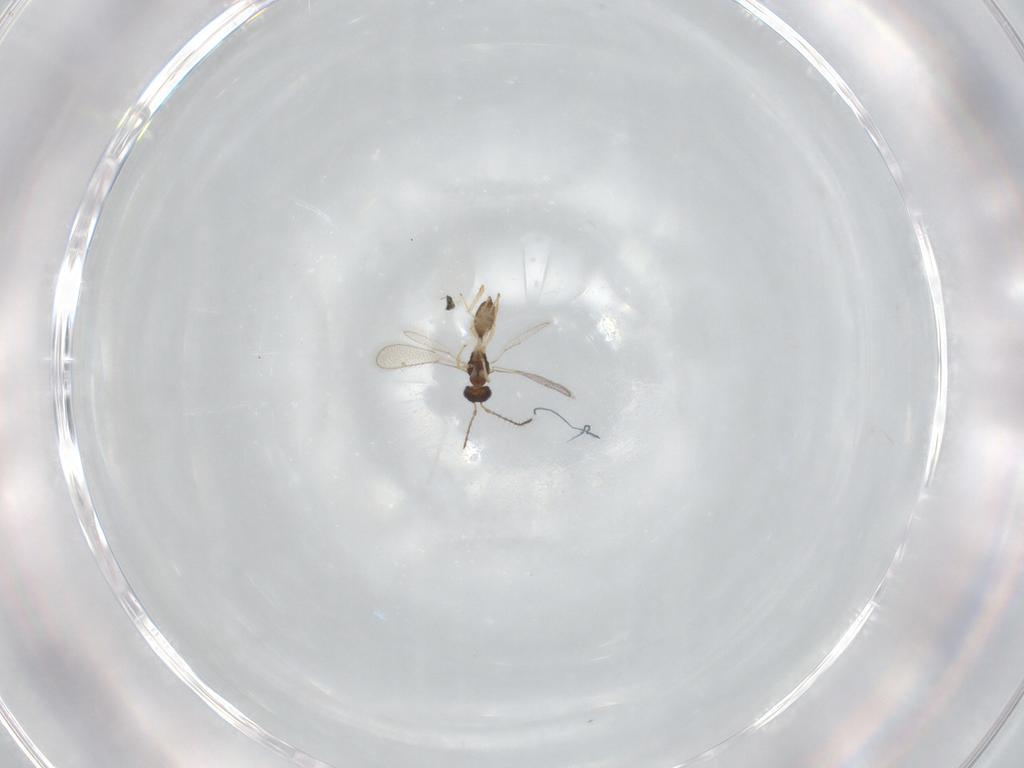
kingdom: Animalia
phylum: Arthropoda
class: Insecta
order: Hymenoptera
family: Diparidae
